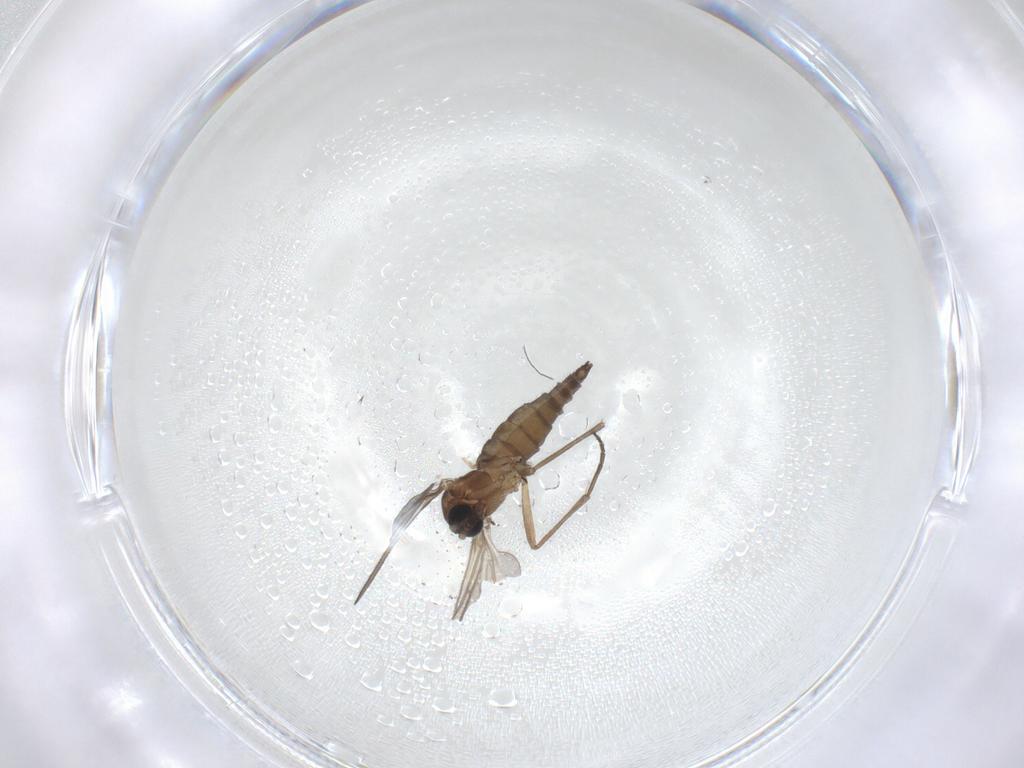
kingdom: Animalia
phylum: Arthropoda
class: Insecta
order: Diptera
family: Sciaridae
